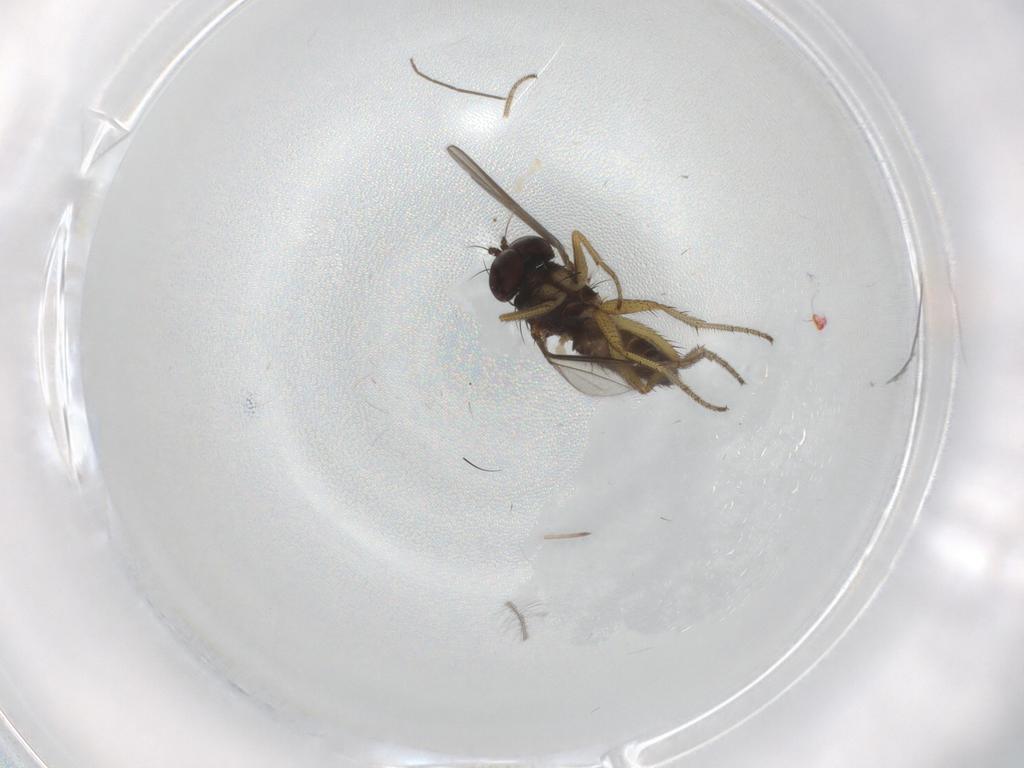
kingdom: Animalia
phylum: Arthropoda
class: Insecta
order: Diptera
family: Chironomidae
